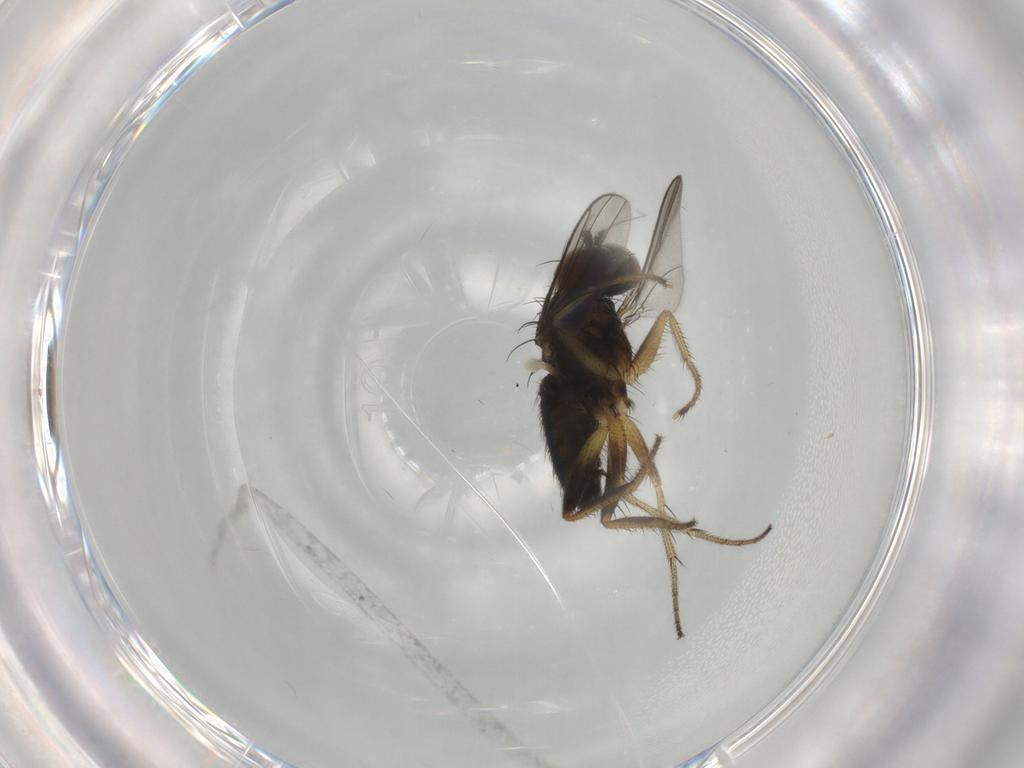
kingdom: Animalia
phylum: Arthropoda
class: Insecta
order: Diptera
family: Dolichopodidae
